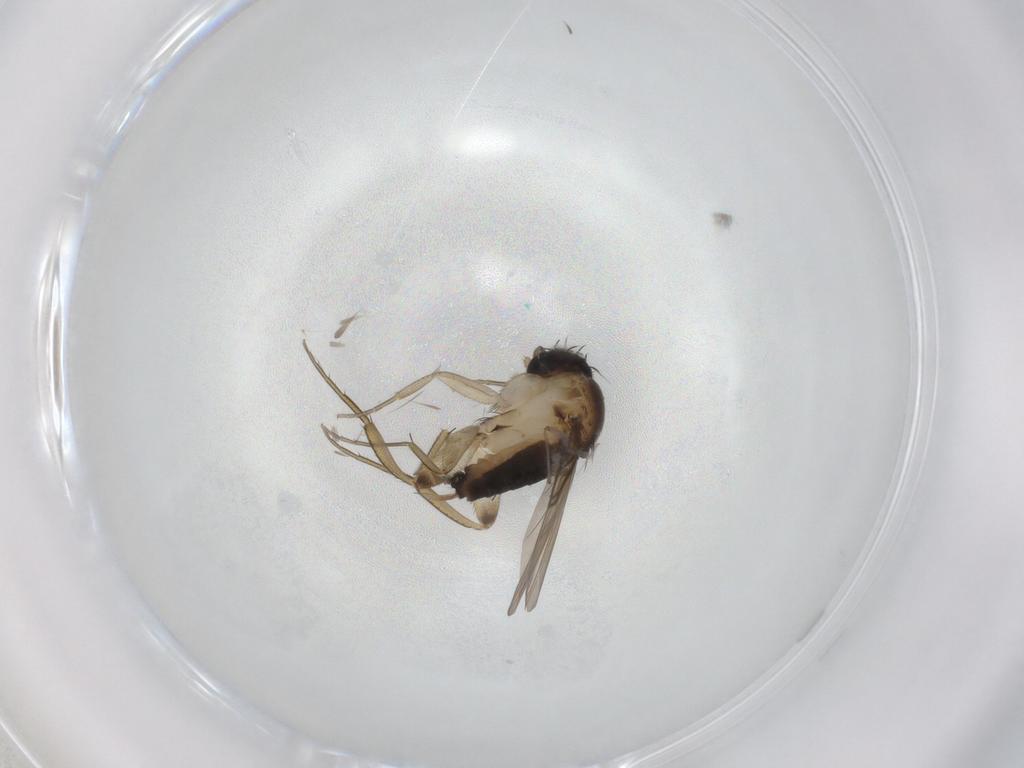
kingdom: Animalia
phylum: Arthropoda
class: Insecta
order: Diptera
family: Phoridae
